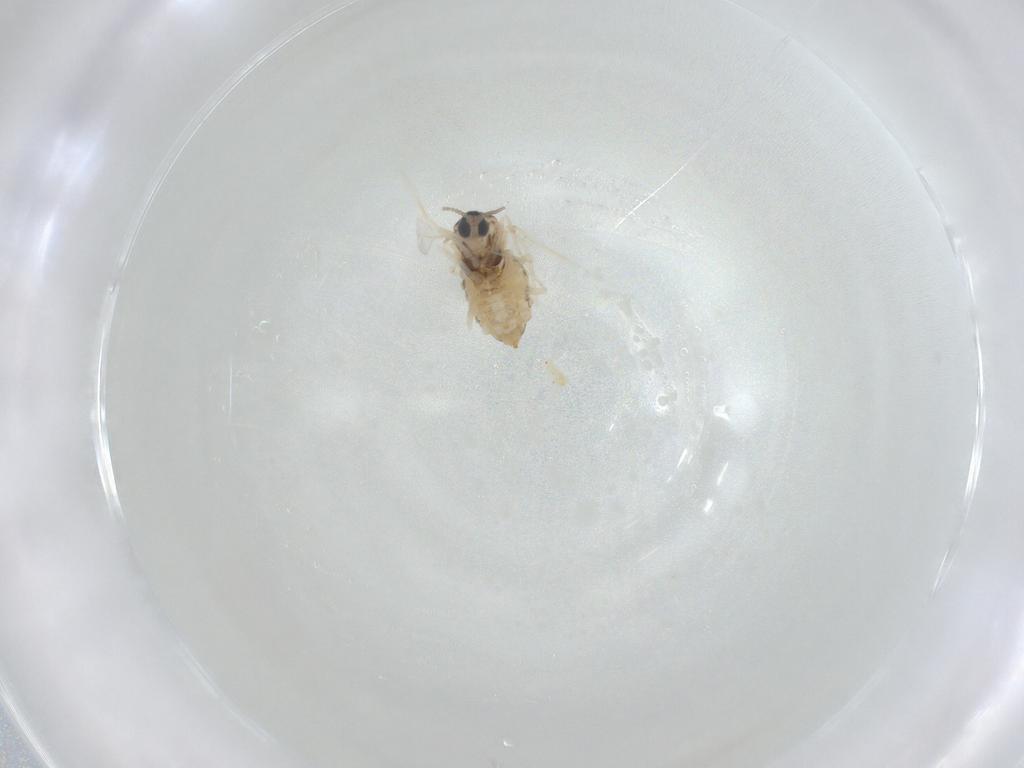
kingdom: Animalia
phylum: Arthropoda
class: Insecta
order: Diptera
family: Cecidomyiidae
